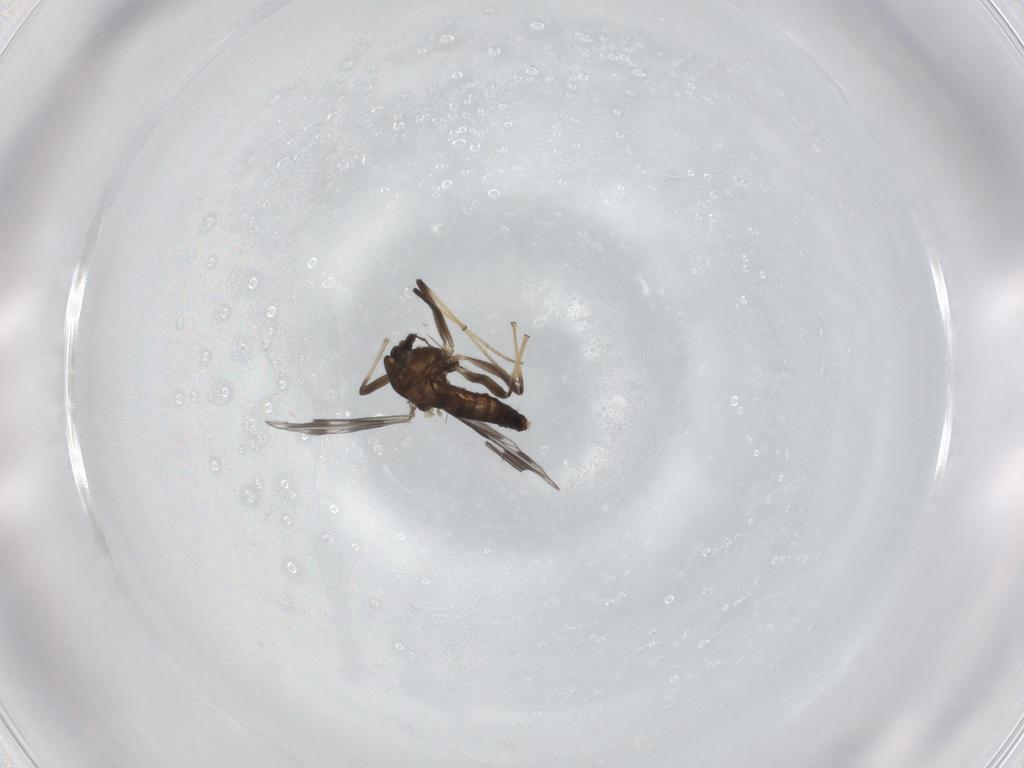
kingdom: Animalia
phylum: Arthropoda
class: Insecta
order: Diptera
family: Chironomidae
